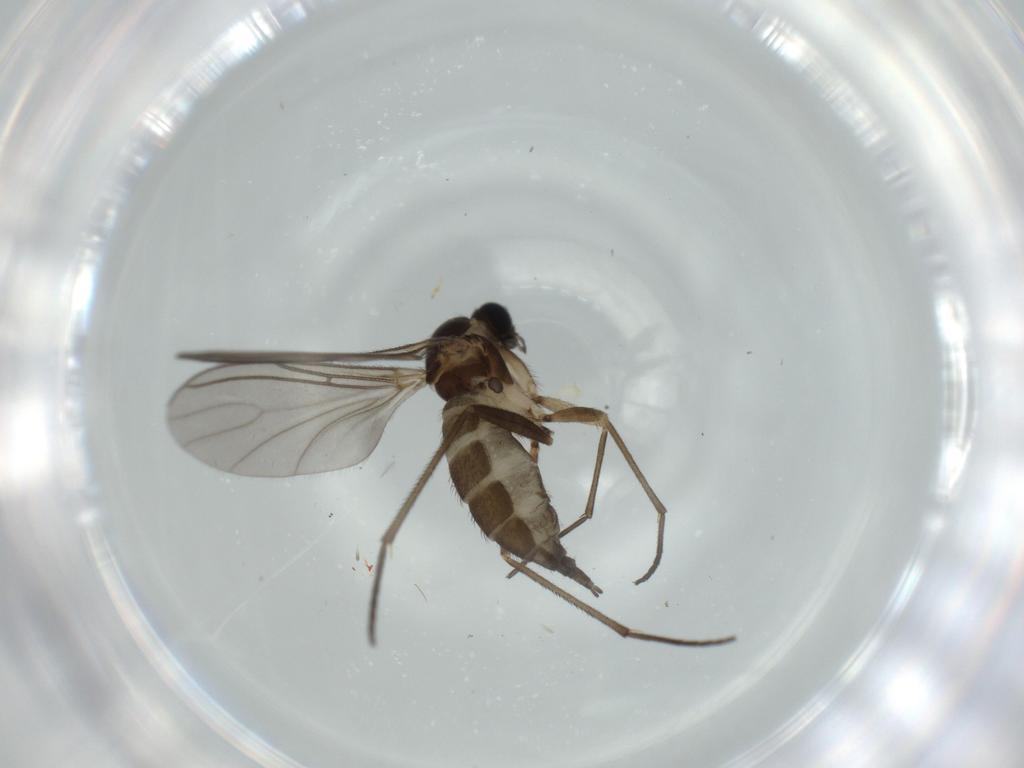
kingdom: Animalia
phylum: Arthropoda
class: Insecta
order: Diptera
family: Sciaridae
